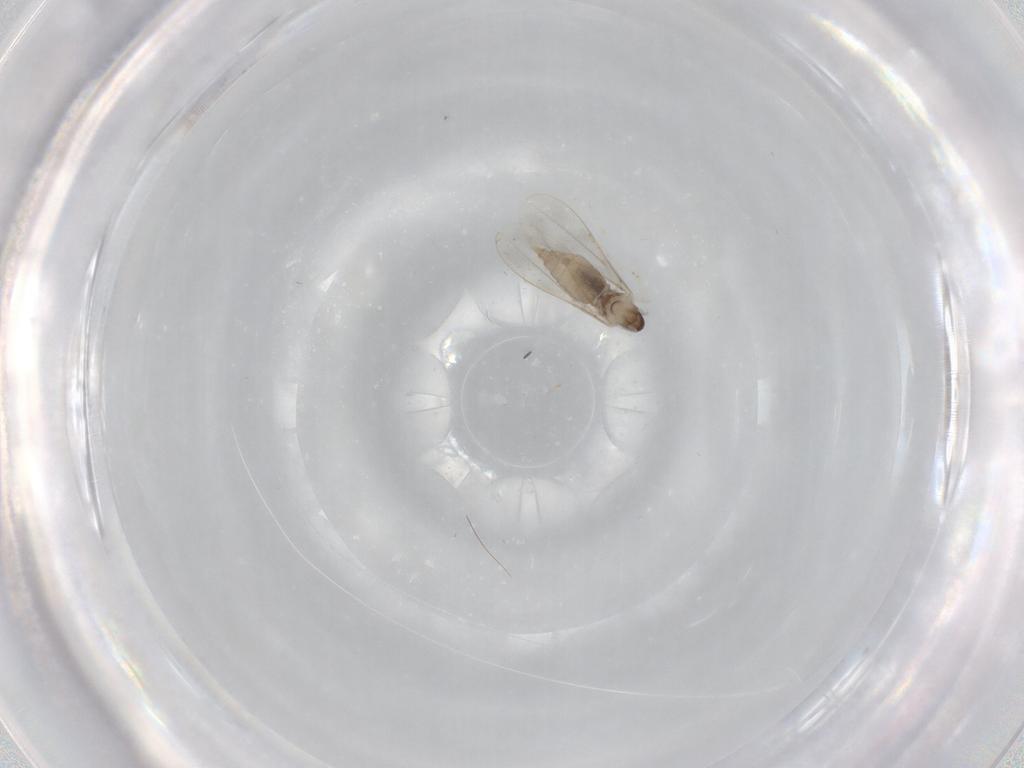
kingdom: Animalia
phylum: Arthropoda
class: Insecta
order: Diptera
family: Cecidomyiidae
